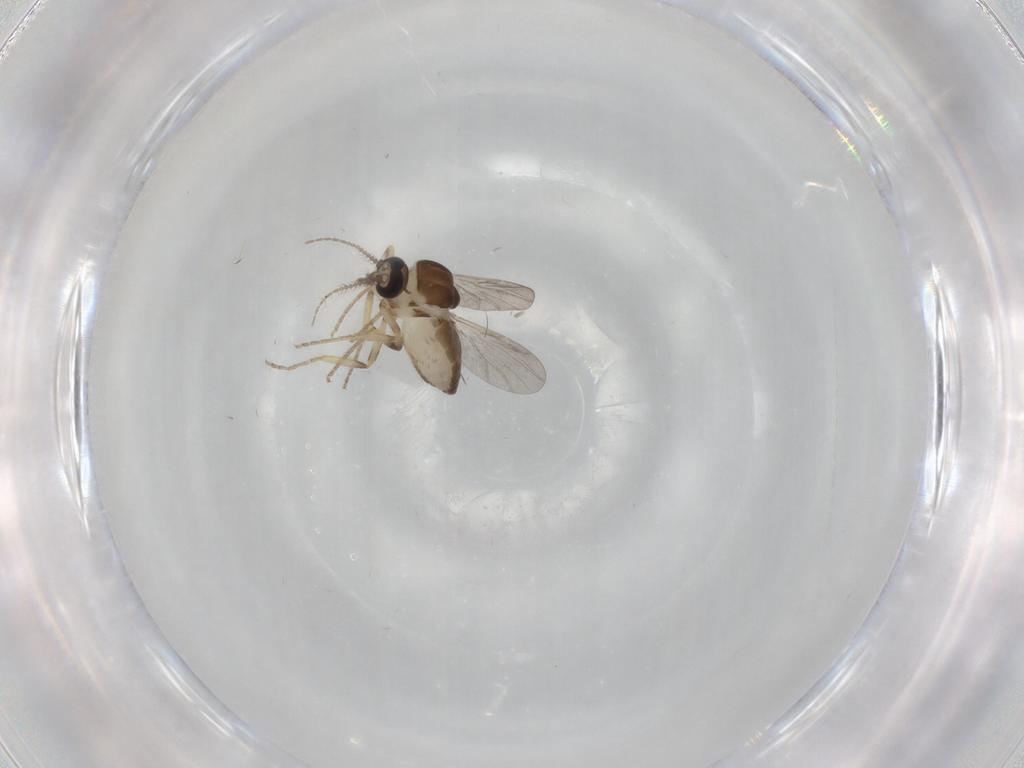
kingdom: Animalia
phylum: Arthropoda
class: Insecta
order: Diptera
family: Ceratopogonidae
